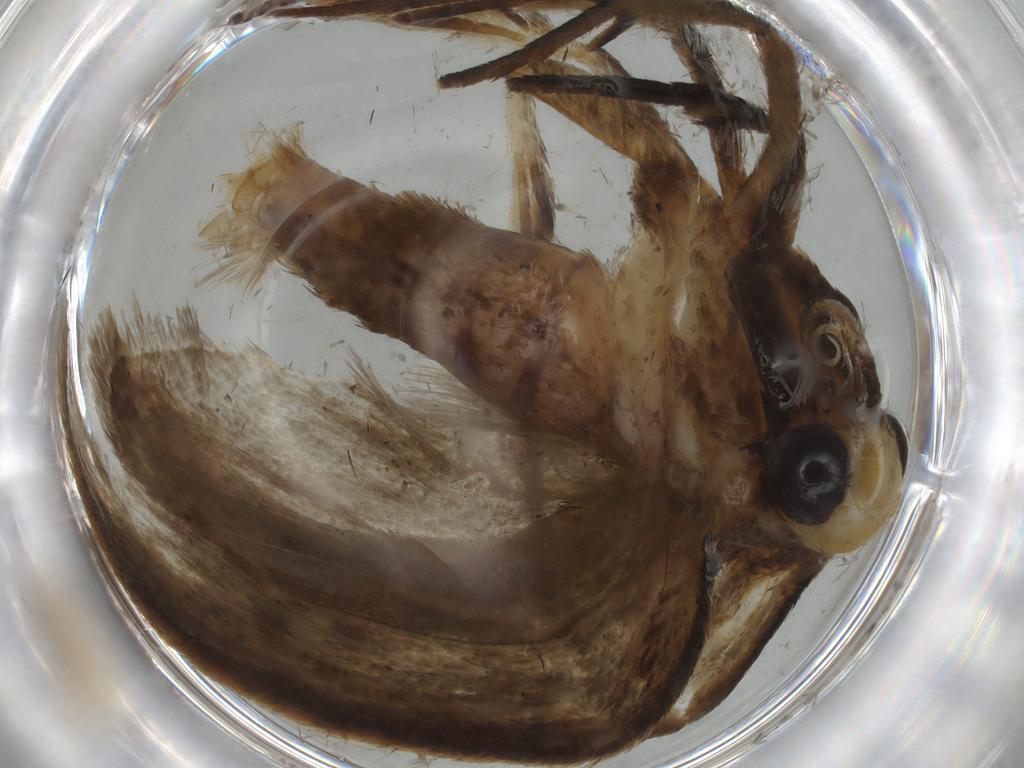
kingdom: Animalia
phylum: Arthropoda
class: Insecta
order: Lepidoptera
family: Oecophoridae
